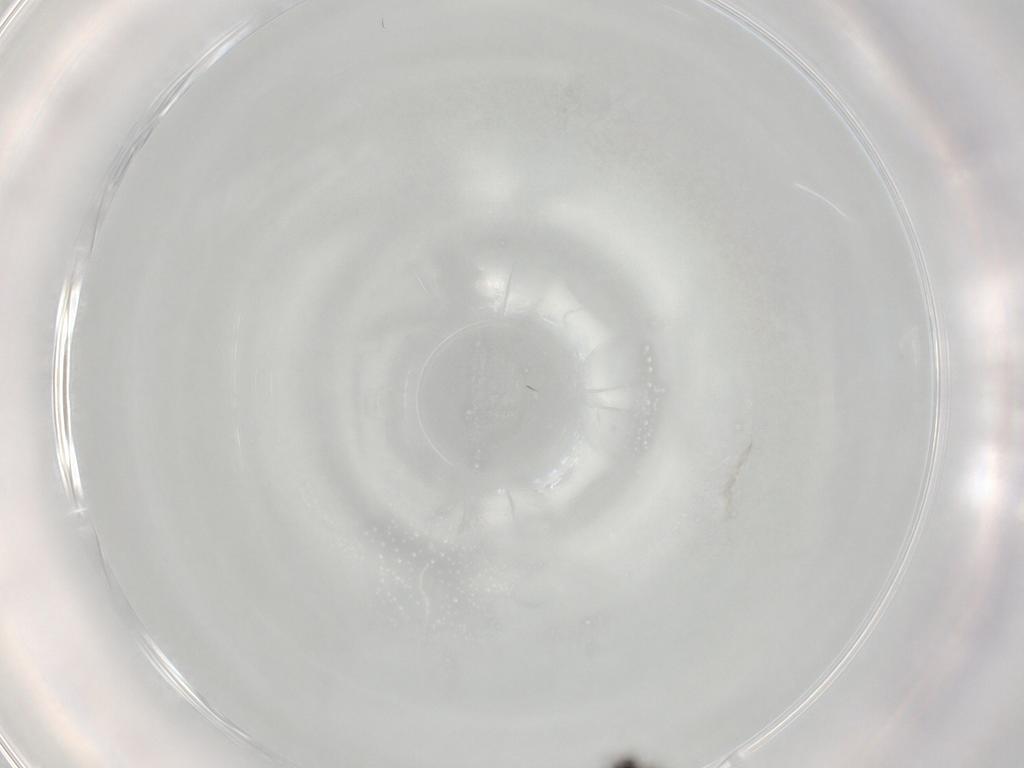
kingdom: Animalia
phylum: Arthropoda
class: Insecta
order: Diptera
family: Chironomidae
